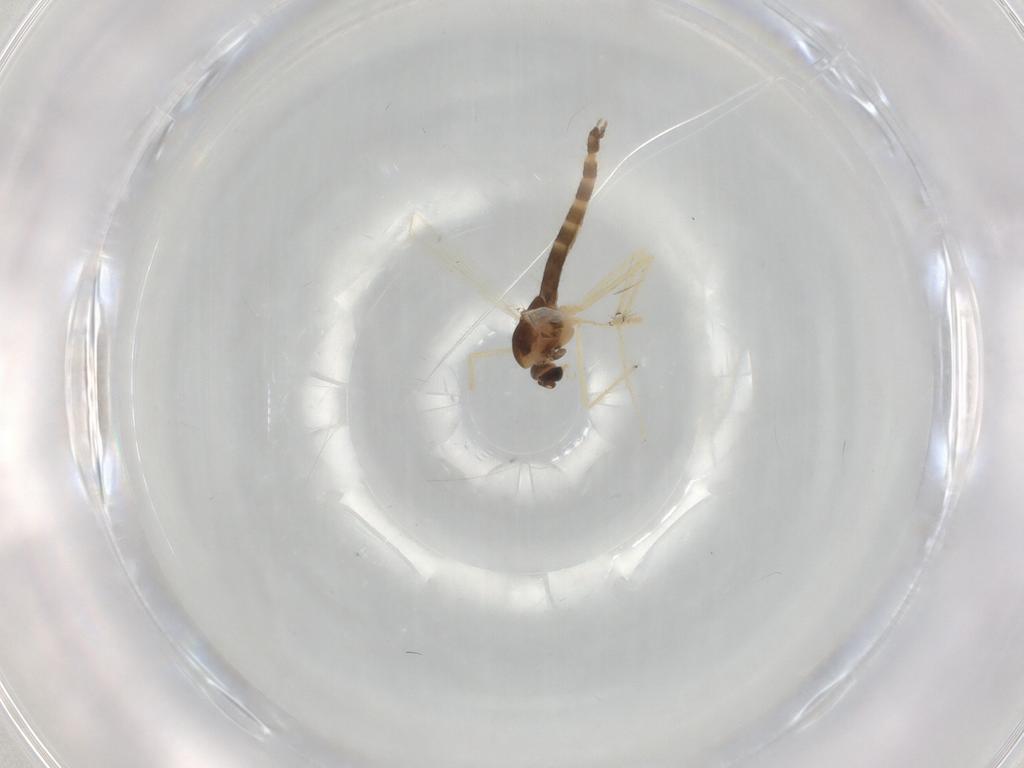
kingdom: Animalia
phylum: Arthropoda
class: Insecta
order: Diptera
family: Chironomidae
